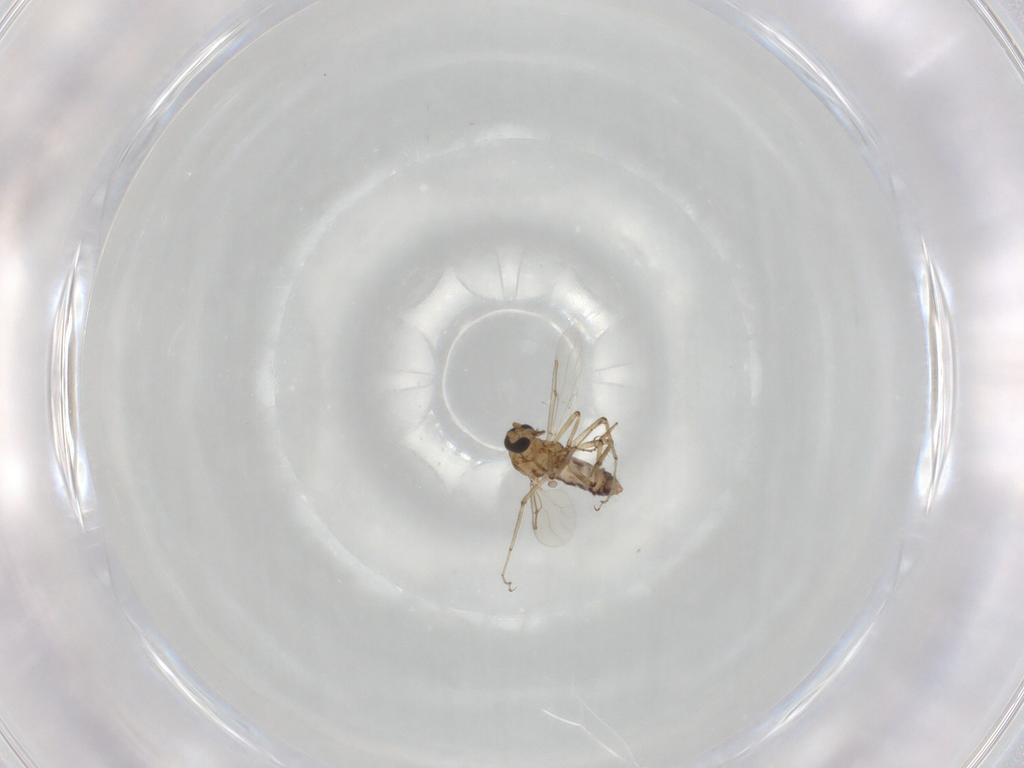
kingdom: Animalia
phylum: Arthropoda
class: Insecta
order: Diptera
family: Ceratopogonidae
